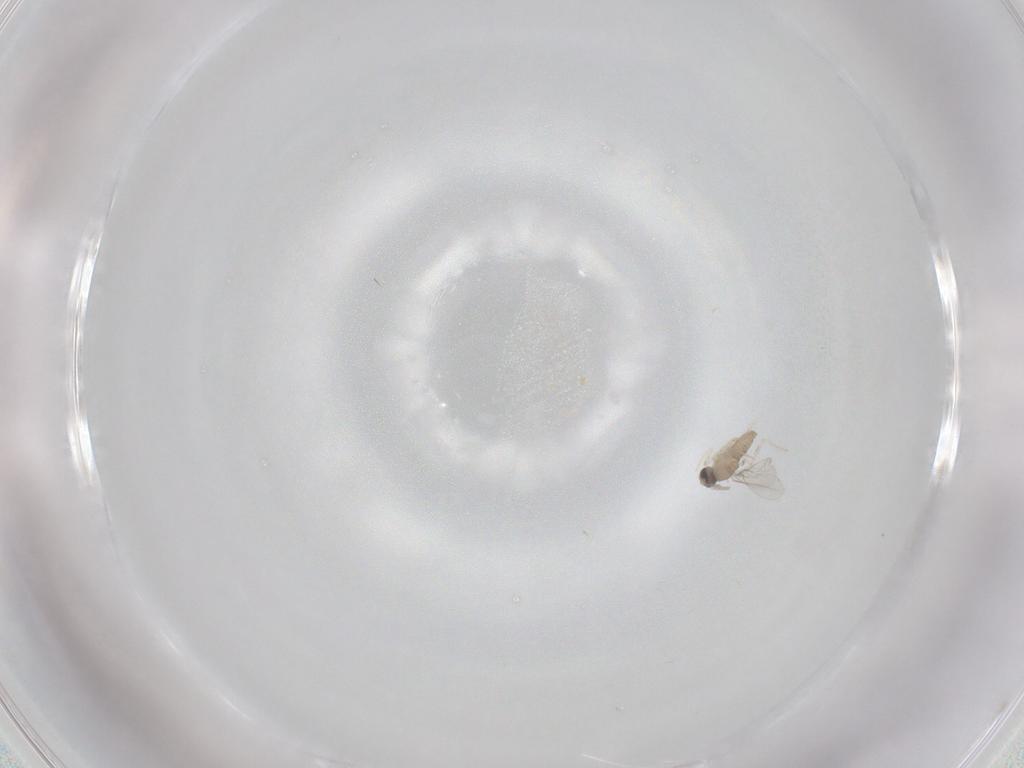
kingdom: Animalia
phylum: Arthropoda
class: Insecta
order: Diptera
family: Cecidomyiidae
